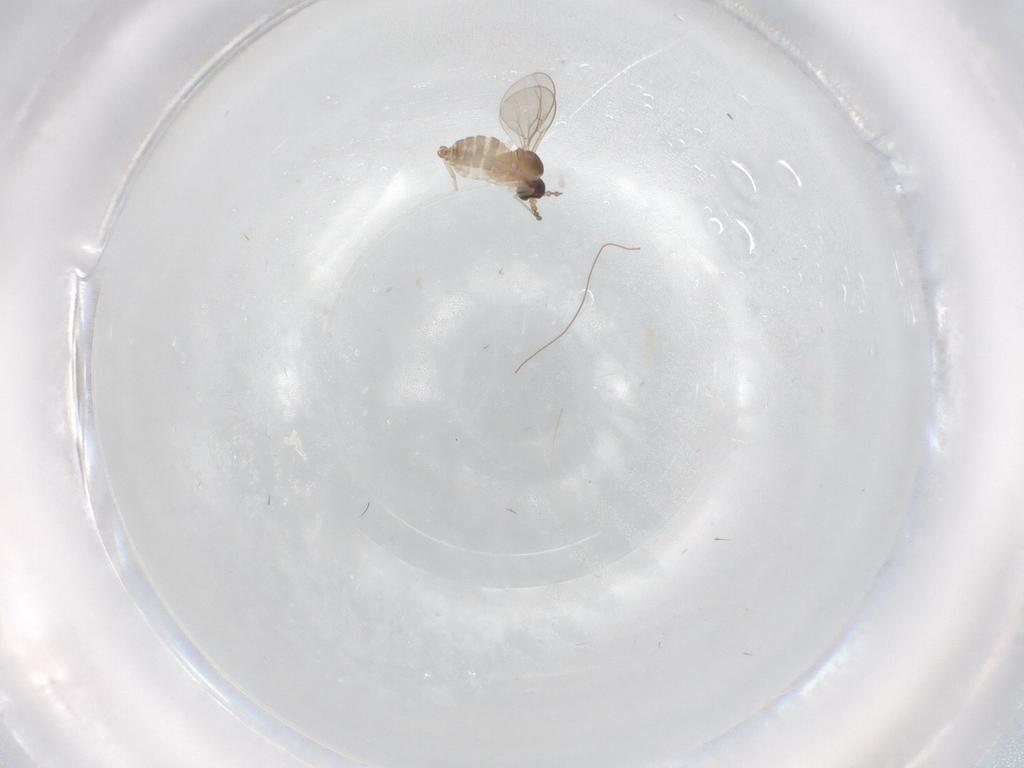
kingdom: Animalia
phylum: Arthropoda
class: Insecta
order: Diptera
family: Cecidomyiidae
